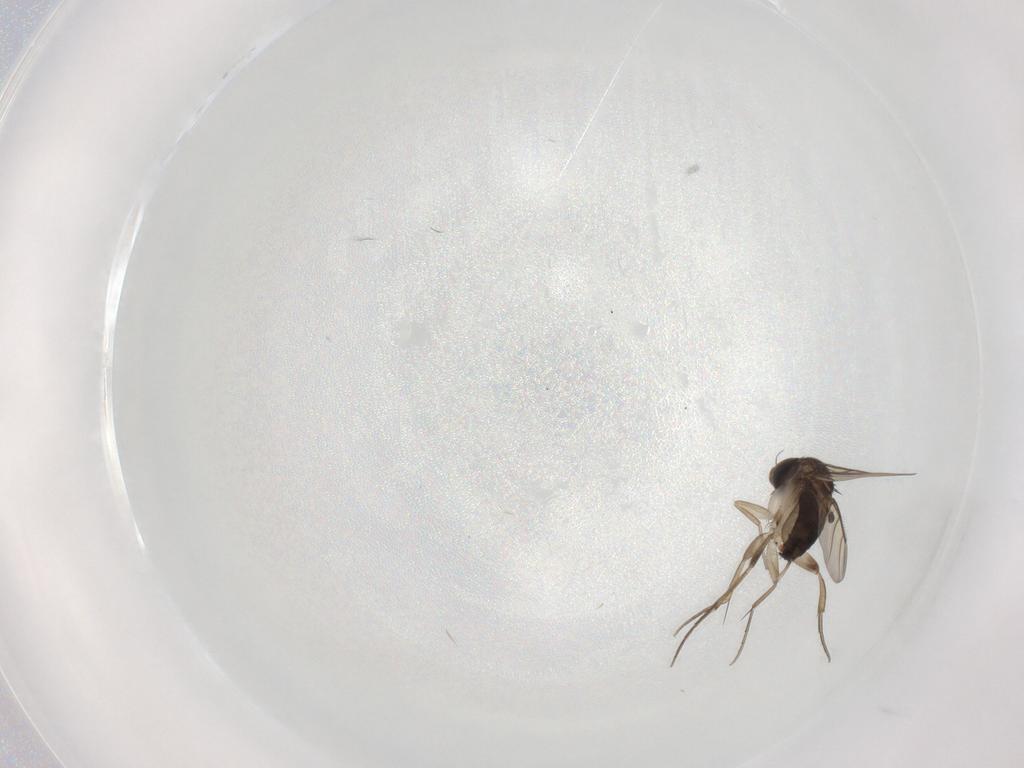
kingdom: Animalia
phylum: Arthropoda
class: Insecta
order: Diptera
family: Phoridae
